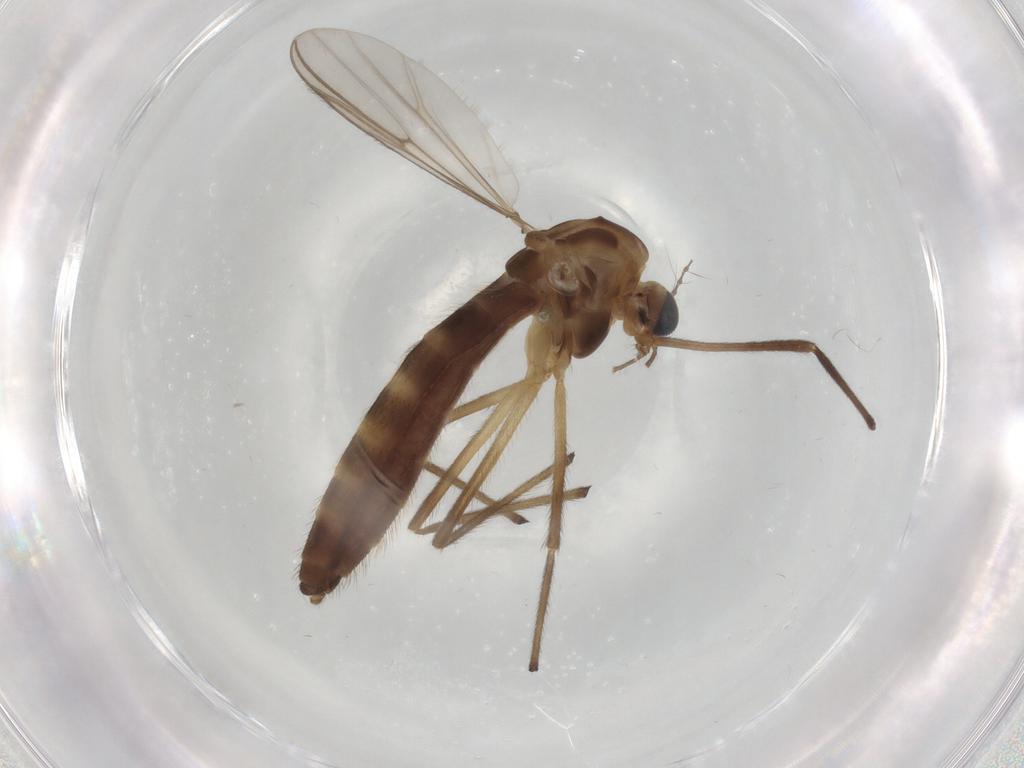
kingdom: Animalia
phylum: Arthropoda
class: Insecta
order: Diptera
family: Chironomidae
